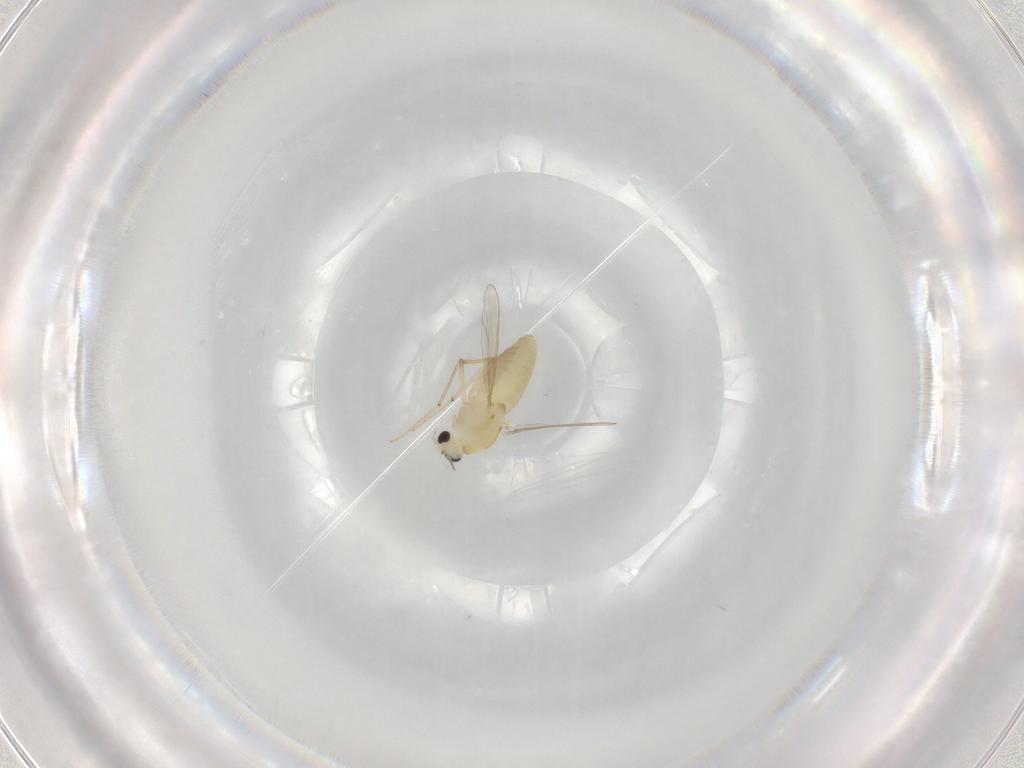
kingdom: Animalia
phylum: Arthropoda
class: Insecta
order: Diptera
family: Chironomidae
